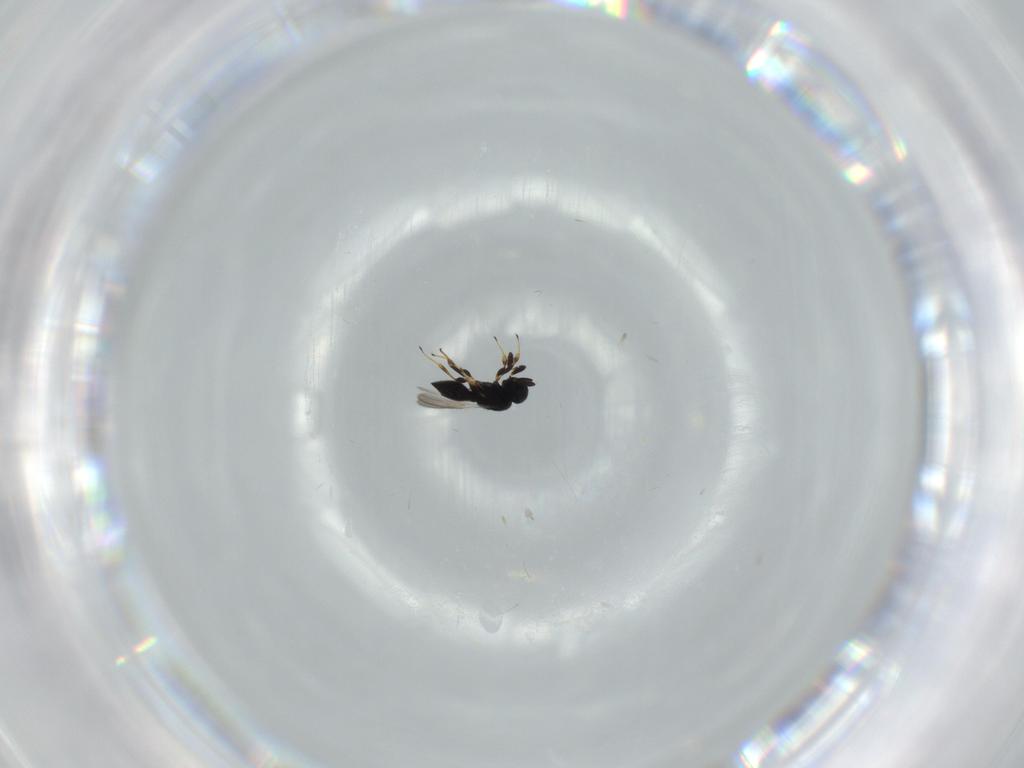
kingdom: Animalia
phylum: Arthropoda
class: Insecta
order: Hymenoptera
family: Scelionidae
